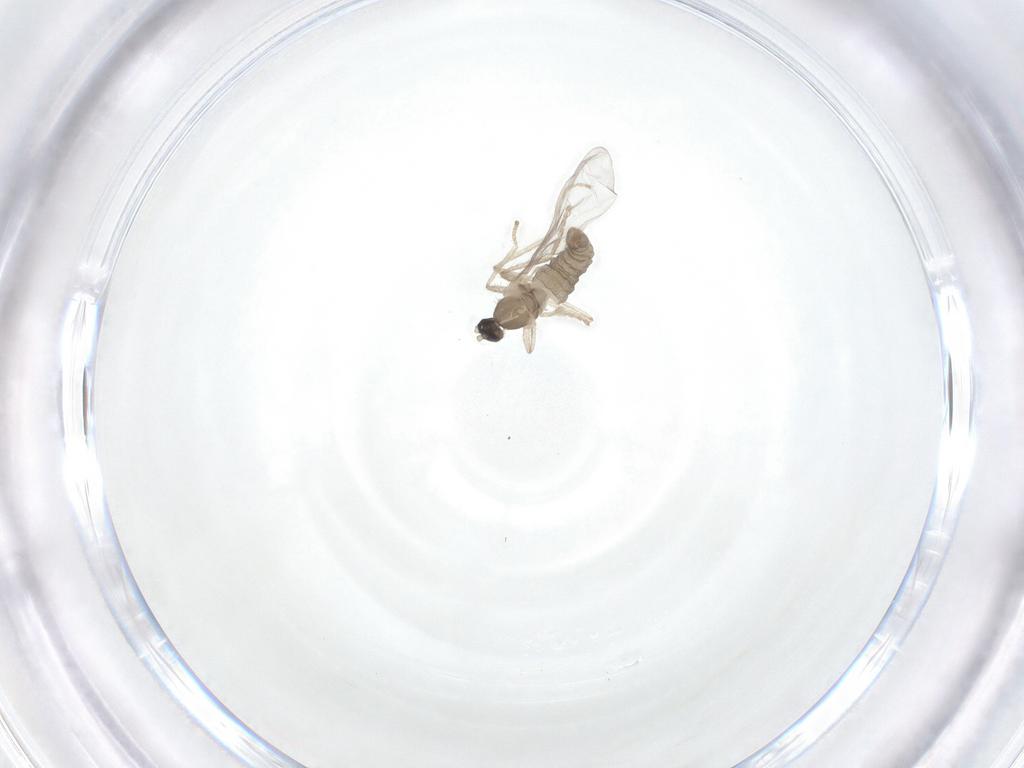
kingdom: Animalia
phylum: Arthropoda
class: Insecta
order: Diptera
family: Cecidomyiidae
